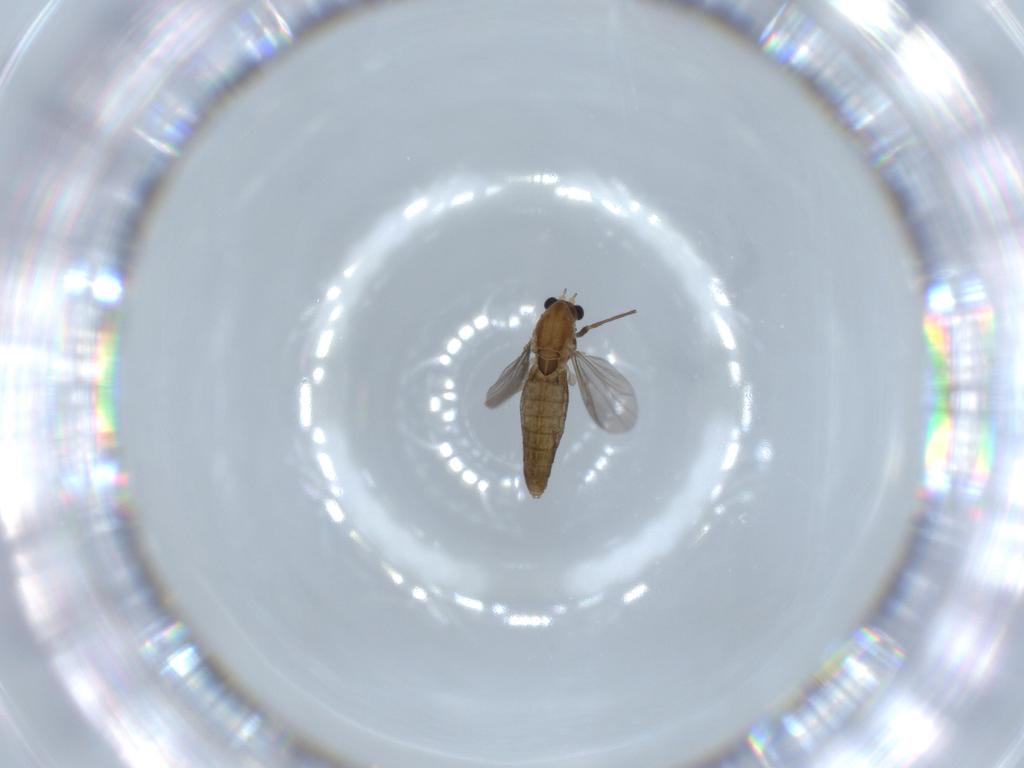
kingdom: Animalia
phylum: Arthropoda
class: Insecta
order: Diptera
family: Chironomidae
